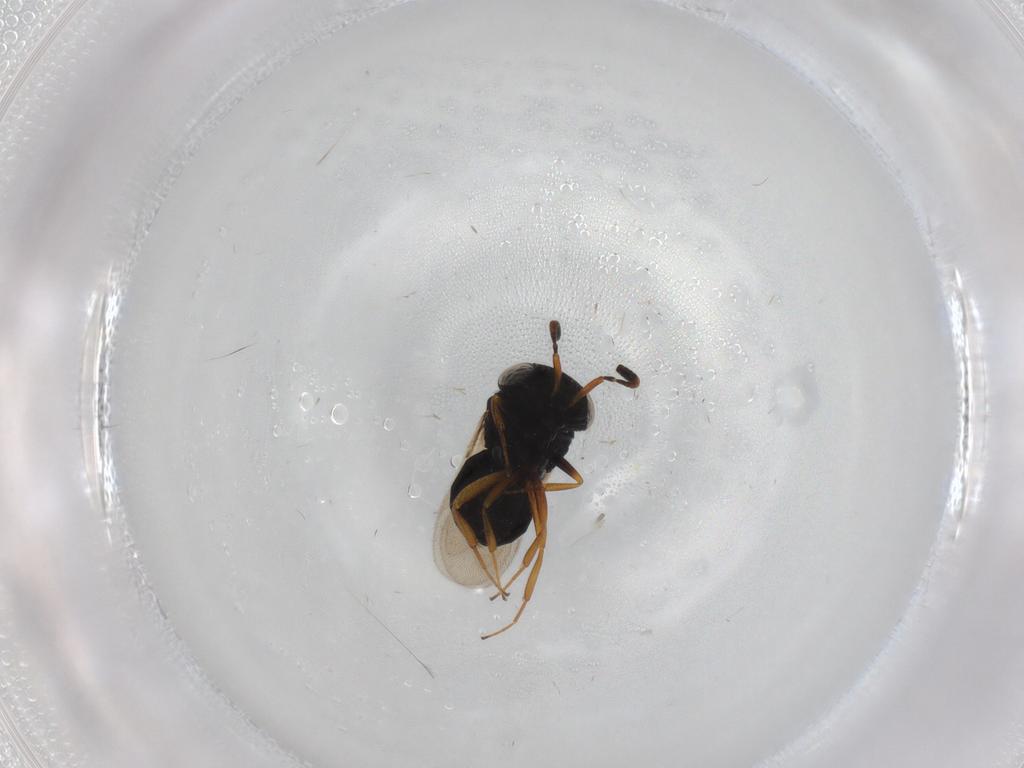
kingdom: Animalia
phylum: Arthropoda
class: Insecta
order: Hymenoptera
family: Scelionidae
